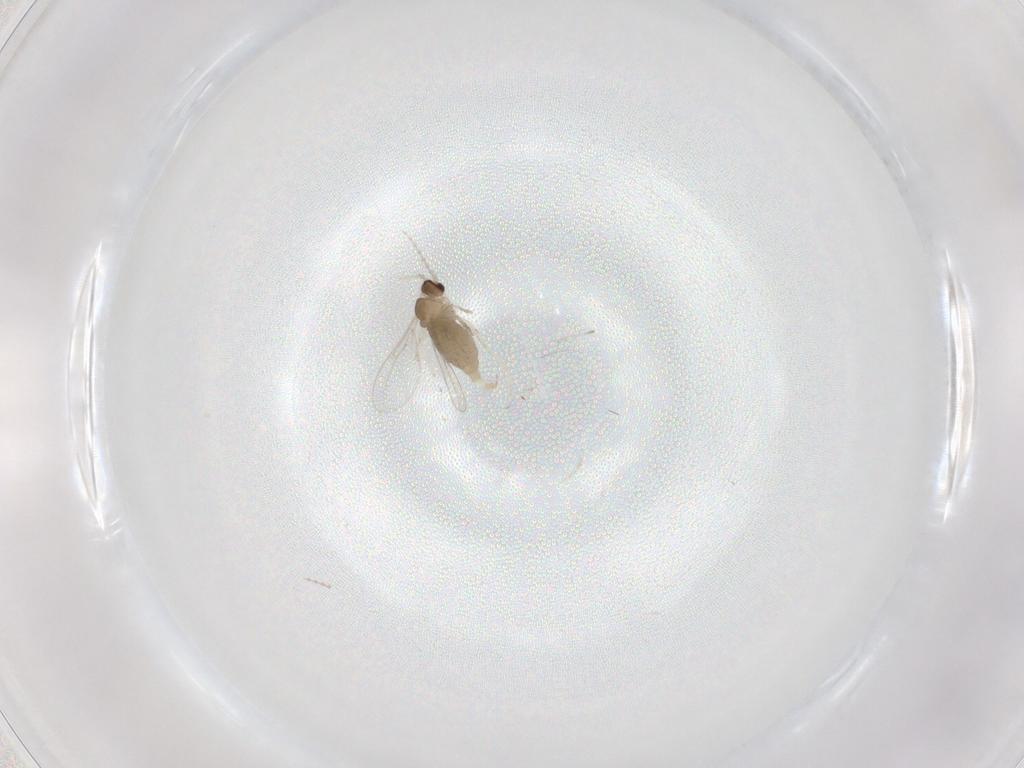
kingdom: Animalia
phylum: Arthropoda
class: Insecta
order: Diptera
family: Cecidomyiidae
